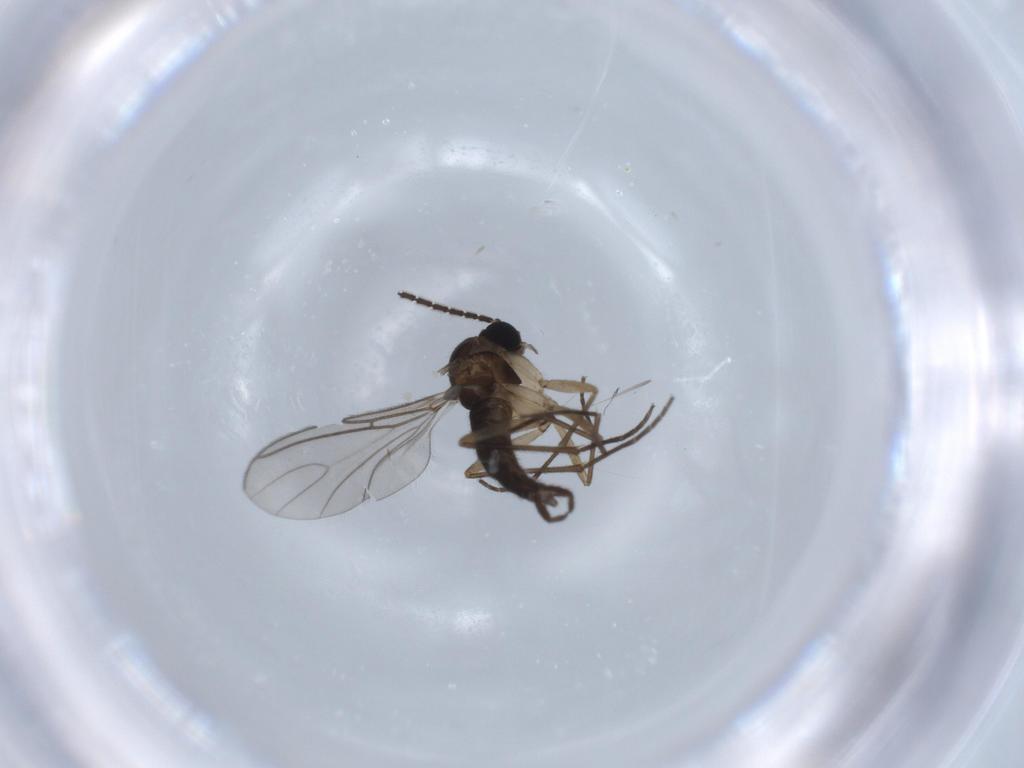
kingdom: Animalia
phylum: Arthropoda
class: Insecta
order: Diptera
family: Sciaridae
